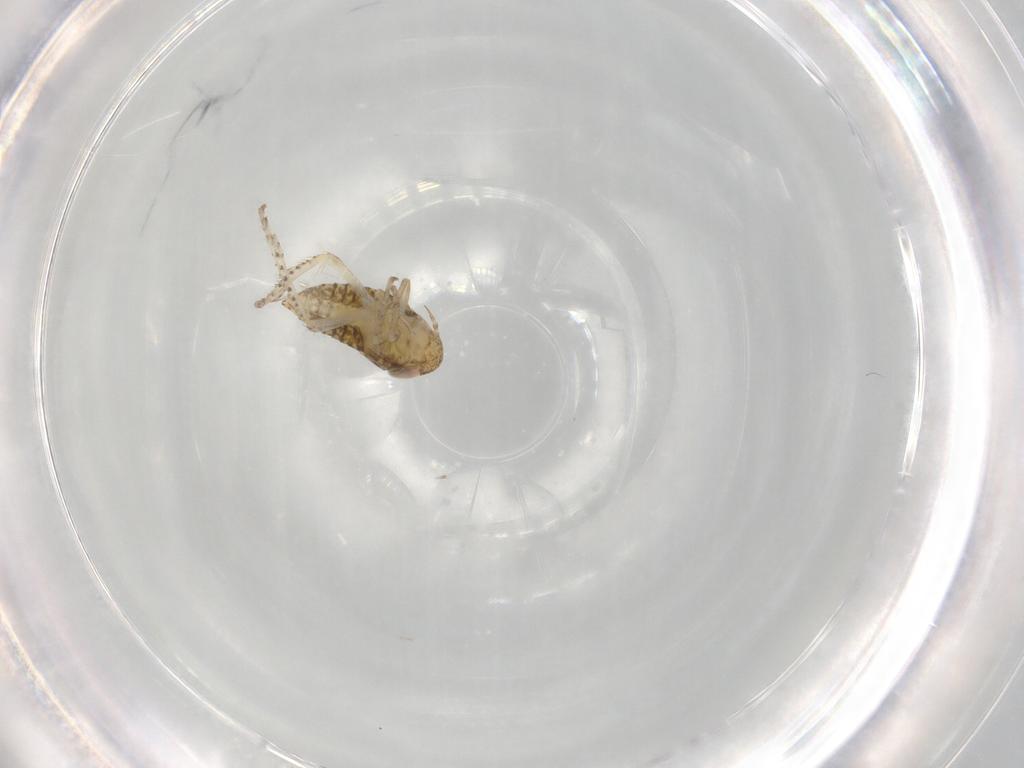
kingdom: Animalia
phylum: Arthropoda
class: Insecta
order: Hemiptera
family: Cicadellidae
